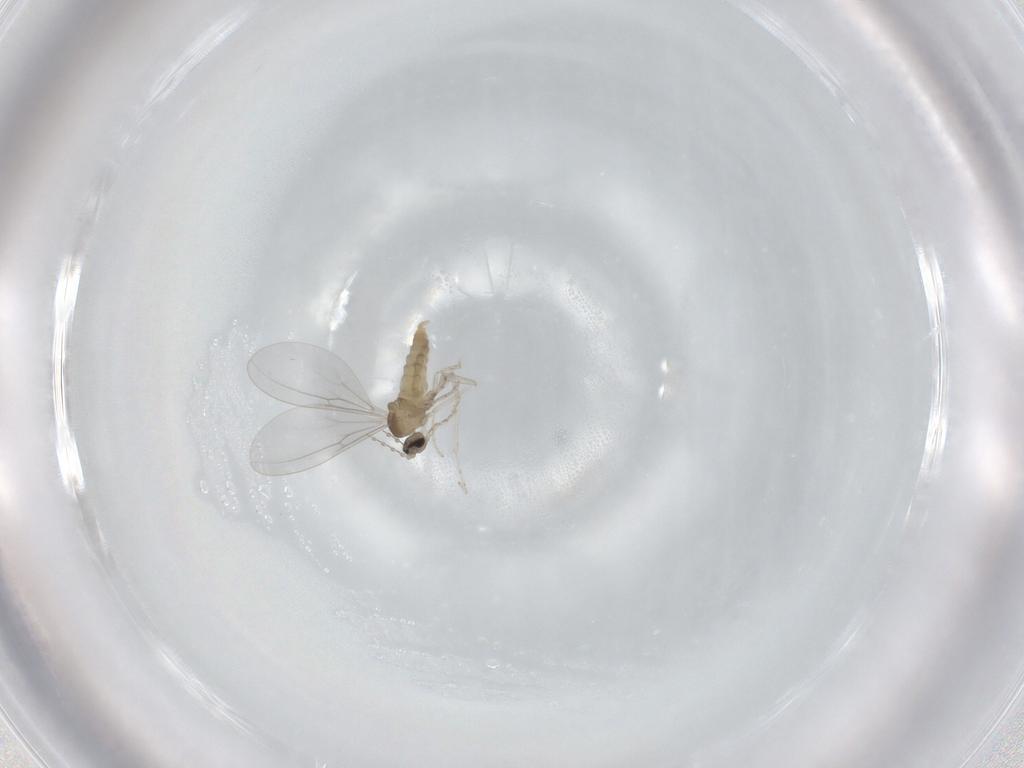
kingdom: Animalia
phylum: Arthropoda
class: Insecta
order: Diptera
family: Cecidomyiidae
